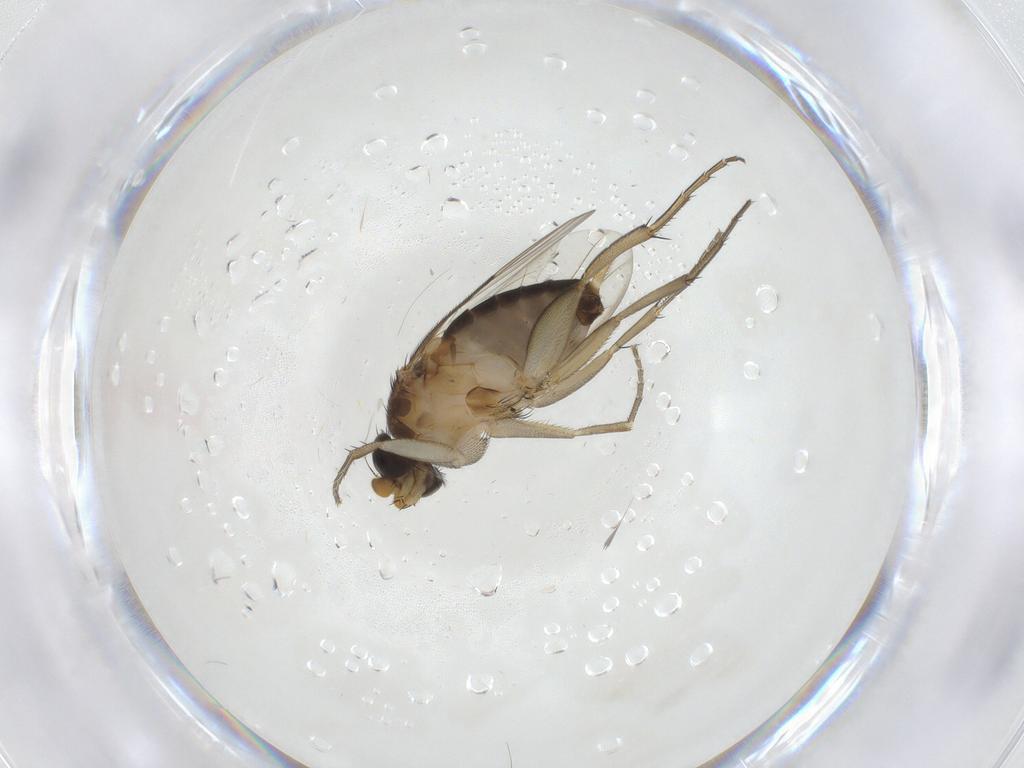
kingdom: Animalia
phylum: Arthropoda
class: Insecta
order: Diptera
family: Phoridae
